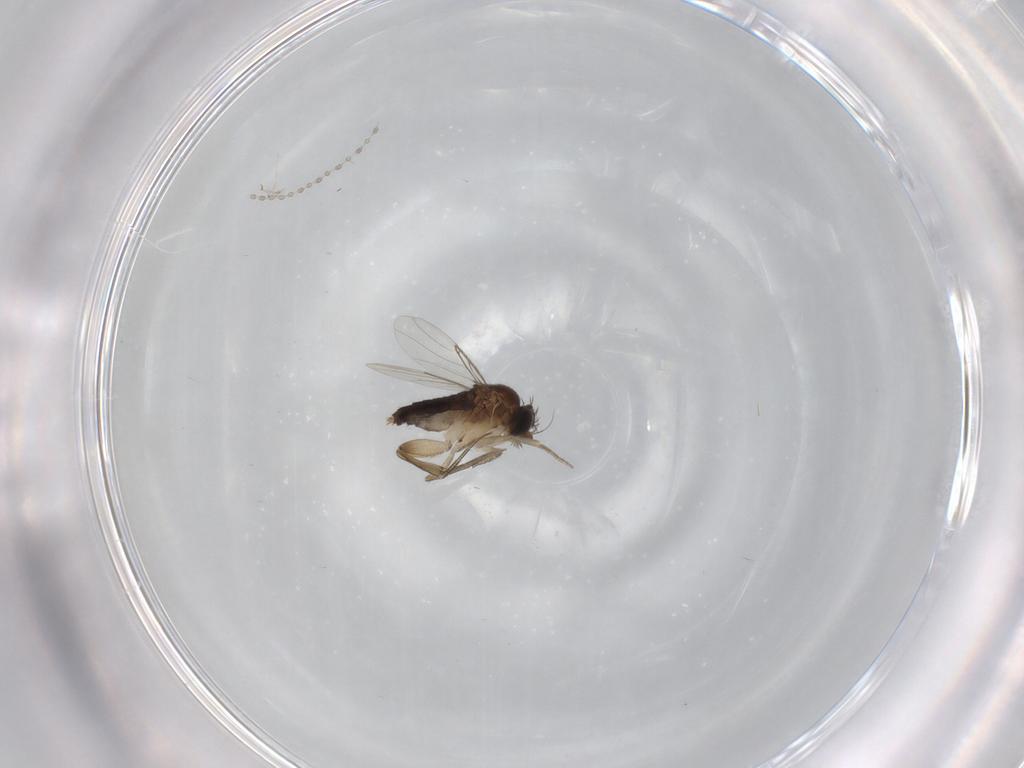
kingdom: Animalia
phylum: Arthropoda
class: Insecta
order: Diptera
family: Phoridae
